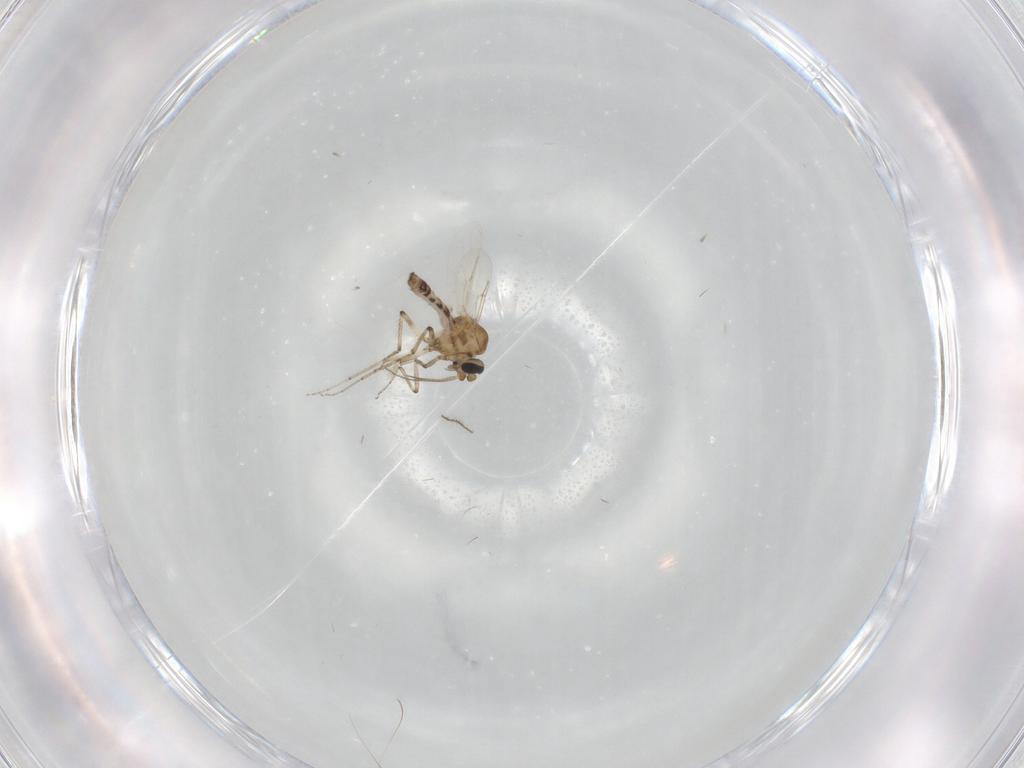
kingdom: Animalia
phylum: Arthropoda
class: Insecta
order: Diptera
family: Ceratopogonidae
